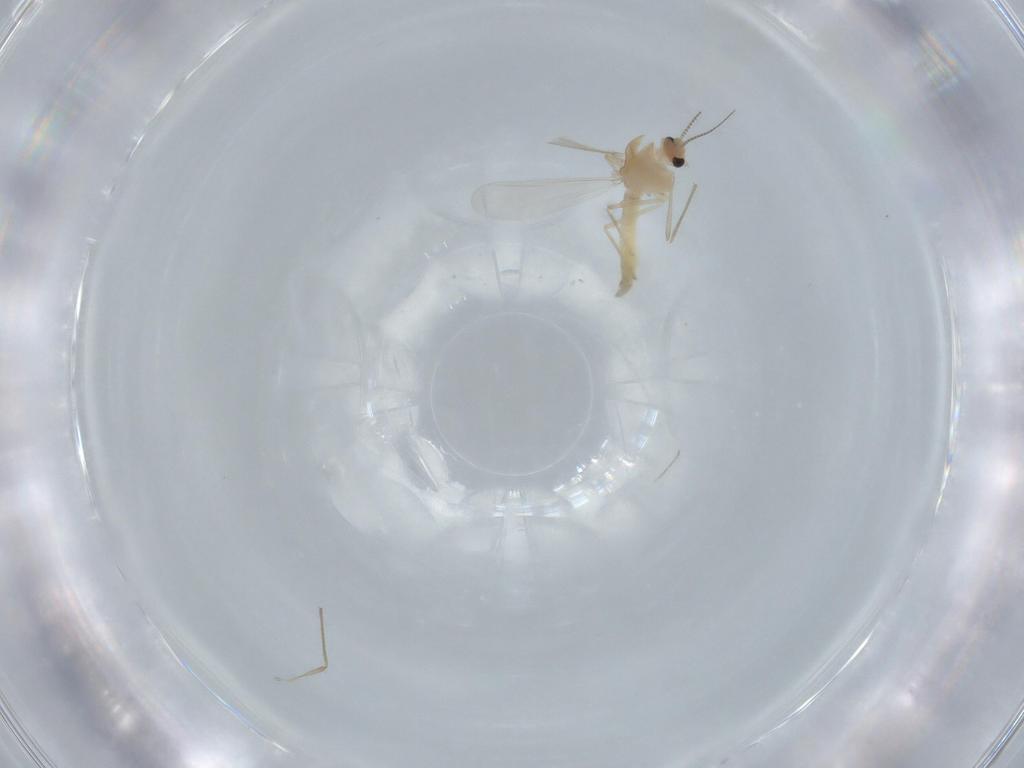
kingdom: Animalia
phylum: Arthropoda
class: Insecta
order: Diptera
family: Chironomidae
